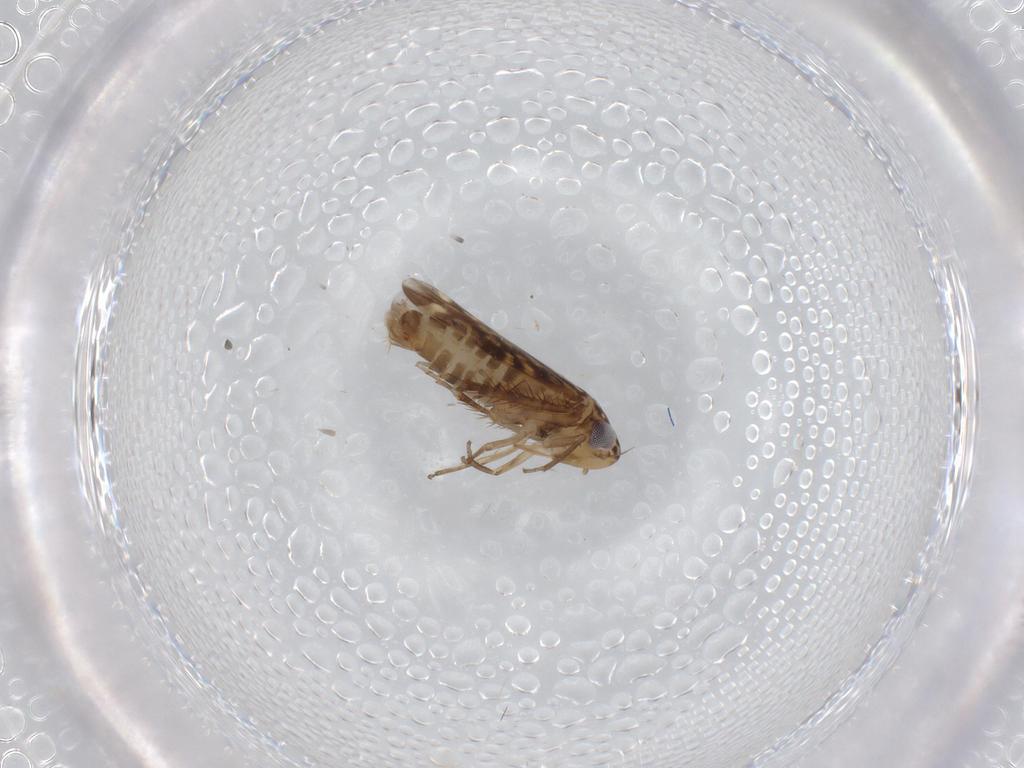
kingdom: Animalia
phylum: Arthropoda
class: Insecta
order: Hemiptera
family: Cicadellidae
